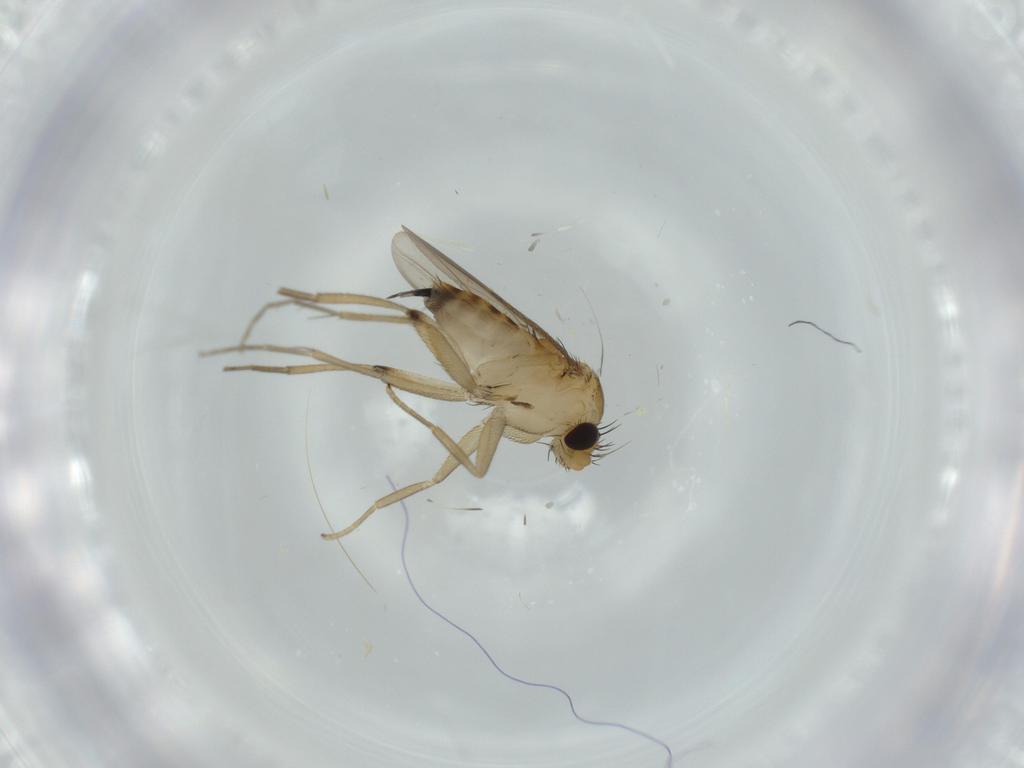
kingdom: Animalia
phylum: Arthropoda
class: Insecta
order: Diptera
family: Phoridae
